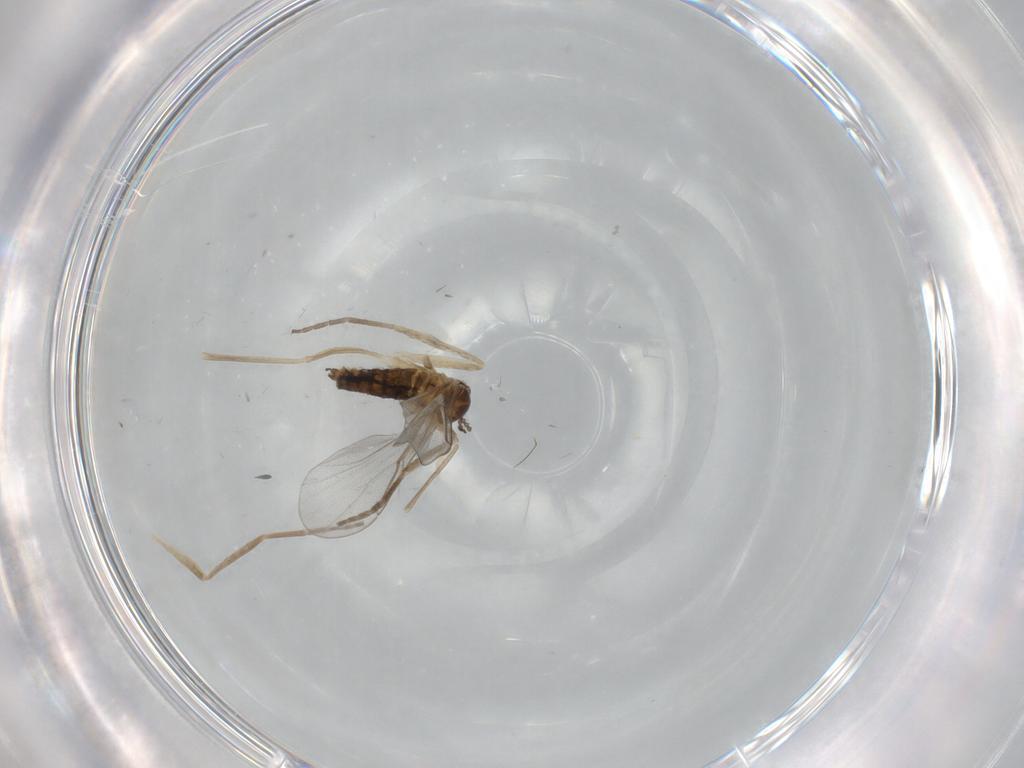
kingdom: Animalia
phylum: Arthropoda
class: Insecta
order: Diptera
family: Cecidomyiidae
